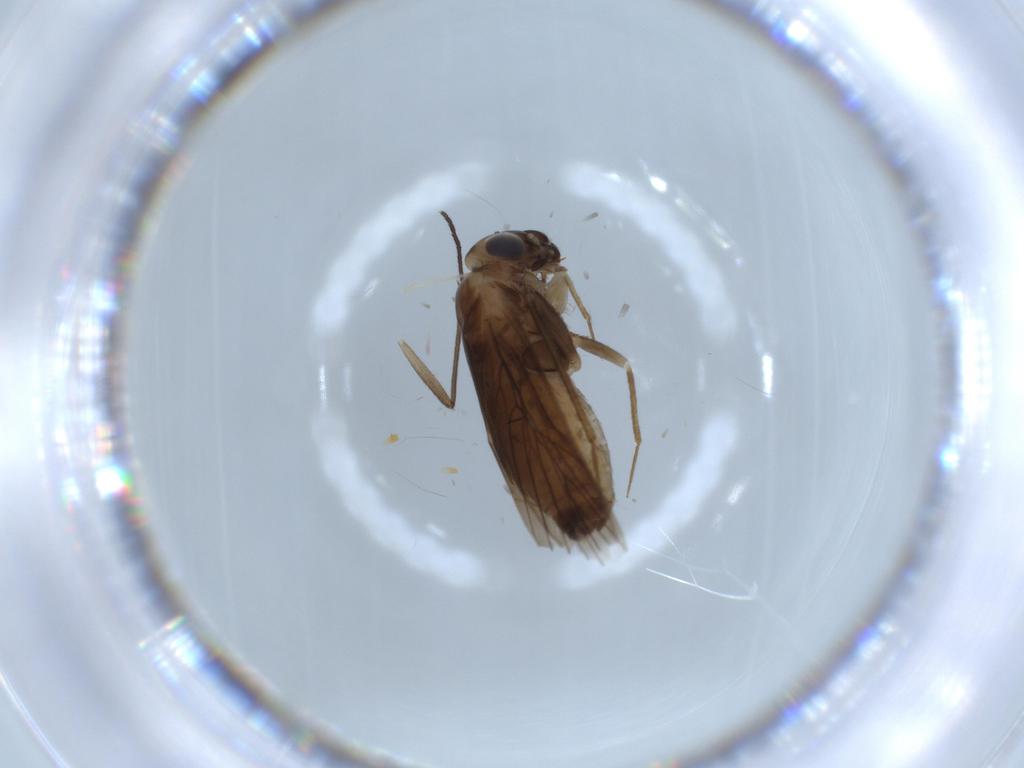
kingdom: Animalia
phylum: Arthropoda
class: Insecta
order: Psocodea
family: Lepidopsocidae
